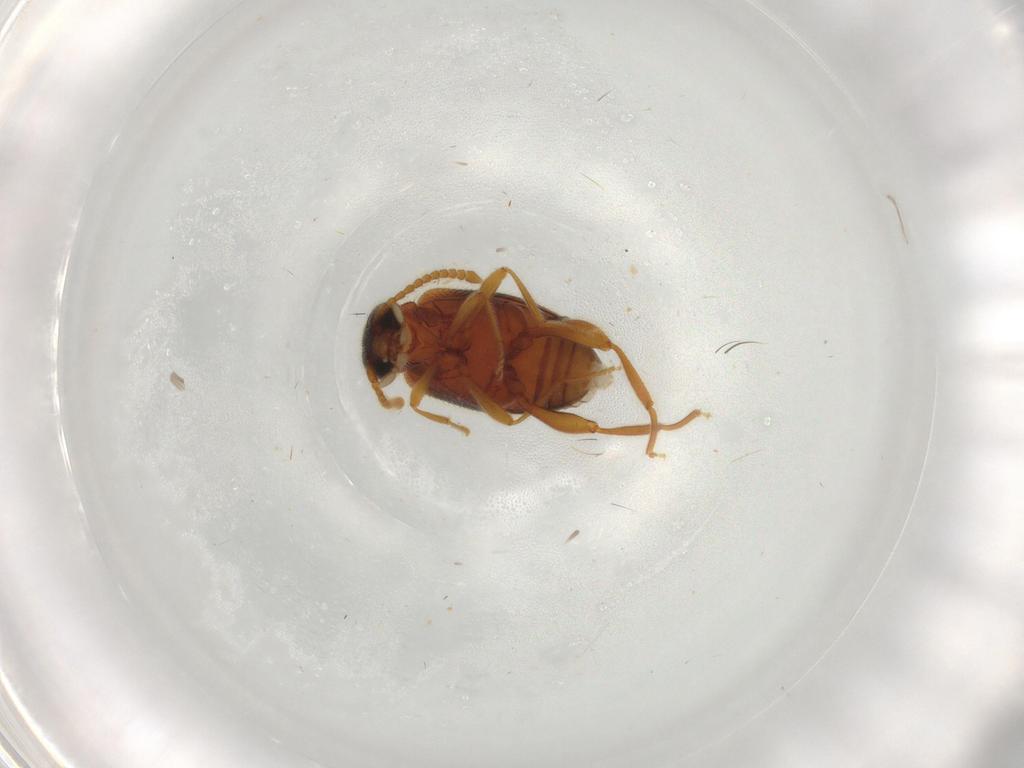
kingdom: Animalia
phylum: Arthropoda
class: Insecta
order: Coleoptera
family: Aderidae
